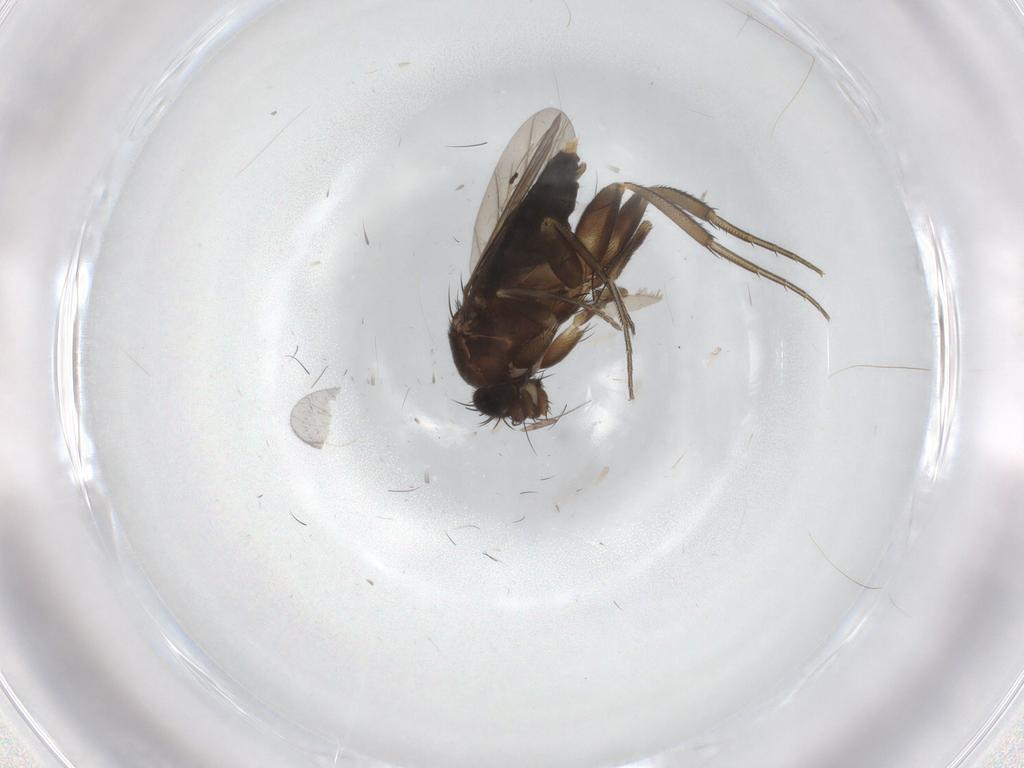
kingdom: Animalia
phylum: Arthropoda
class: Insecta
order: Diptera
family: Phoridae
